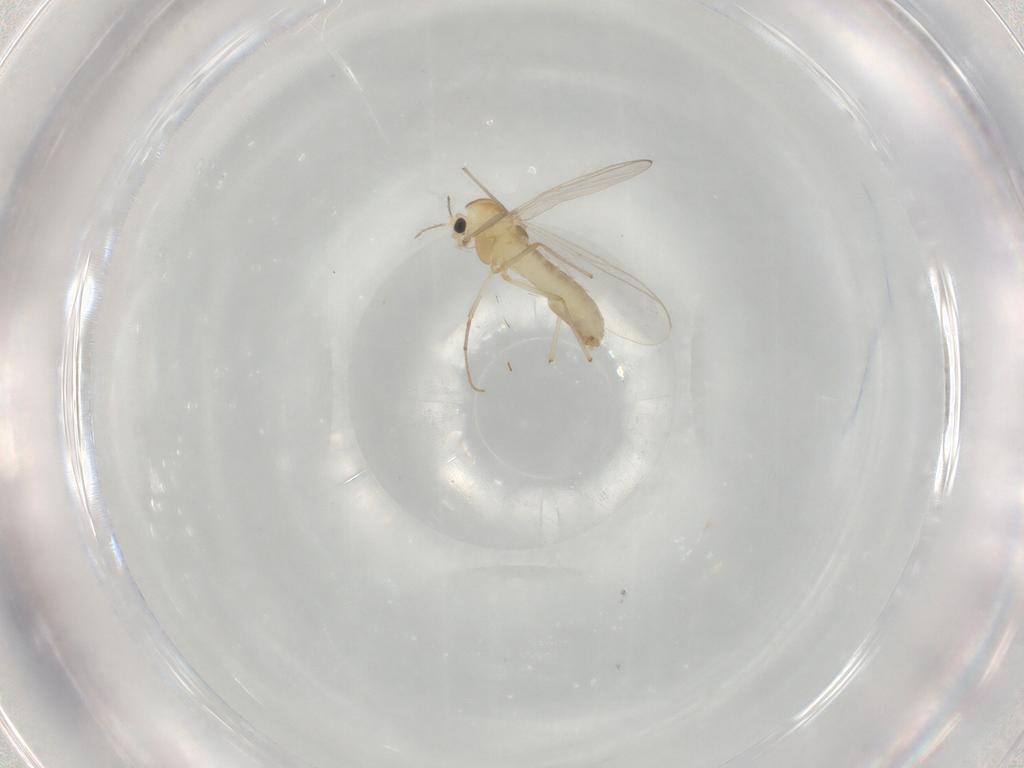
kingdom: Animalia
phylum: Arthropoda
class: Insecta
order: Diptera
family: Chironomidae
